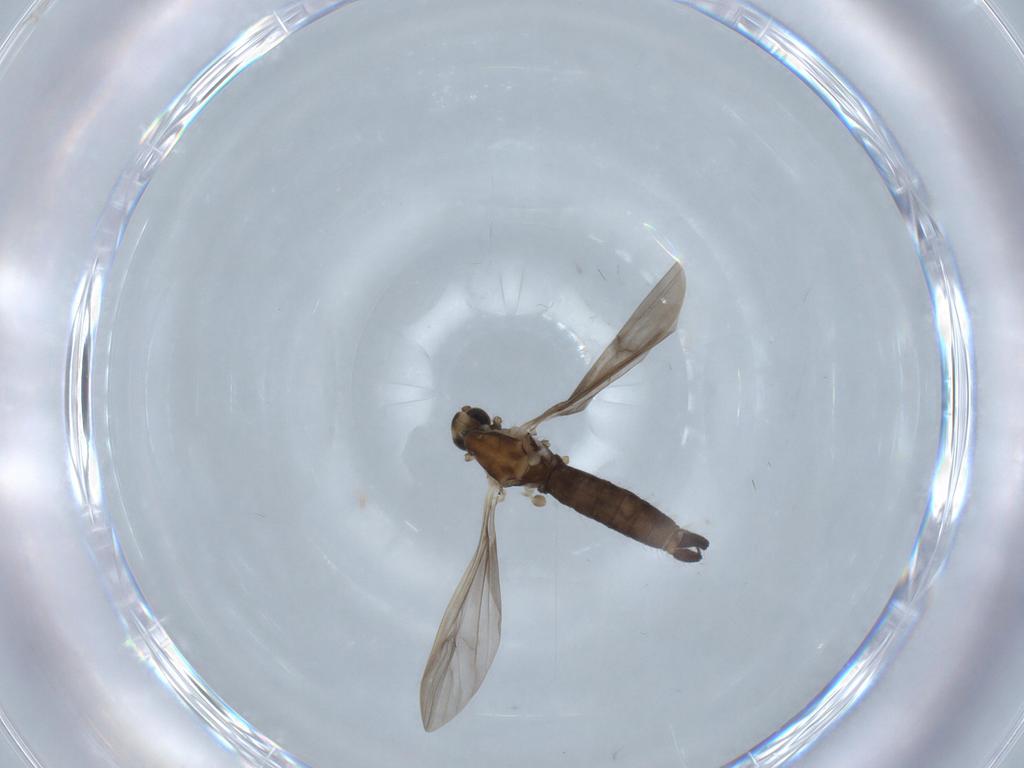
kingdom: Animalia
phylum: Arthropoda
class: Insecta
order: Diptera
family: Limoniidae
